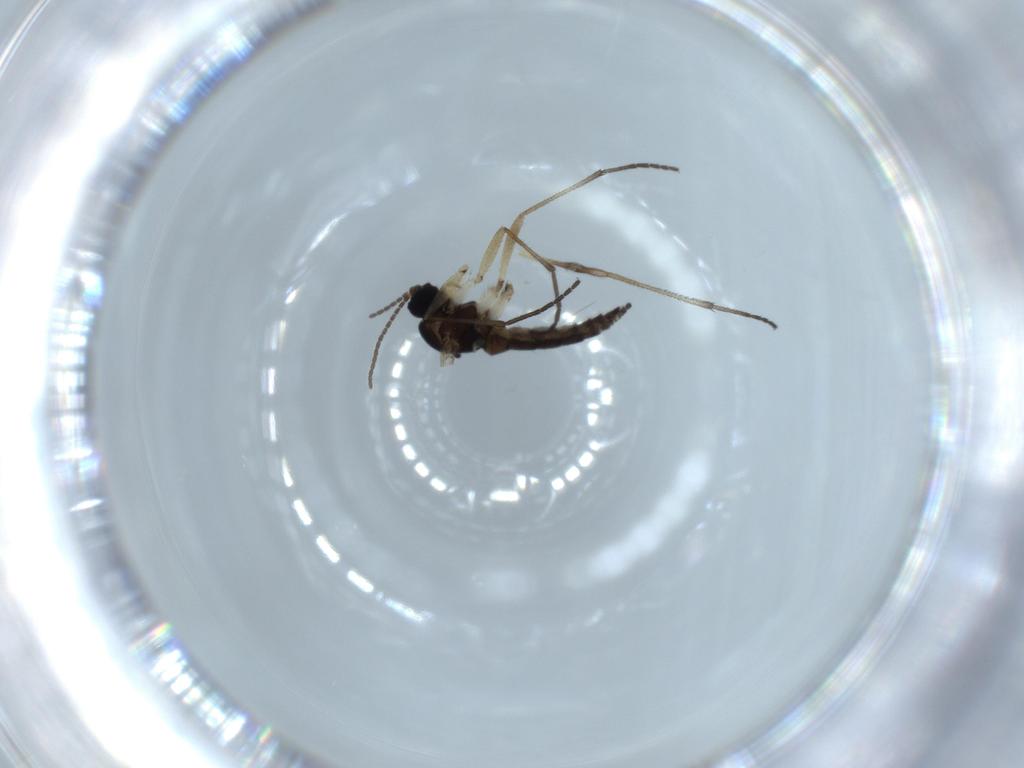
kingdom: Animalia
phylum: Arthropoda
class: Insecta
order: Diptera
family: Sciaridae
